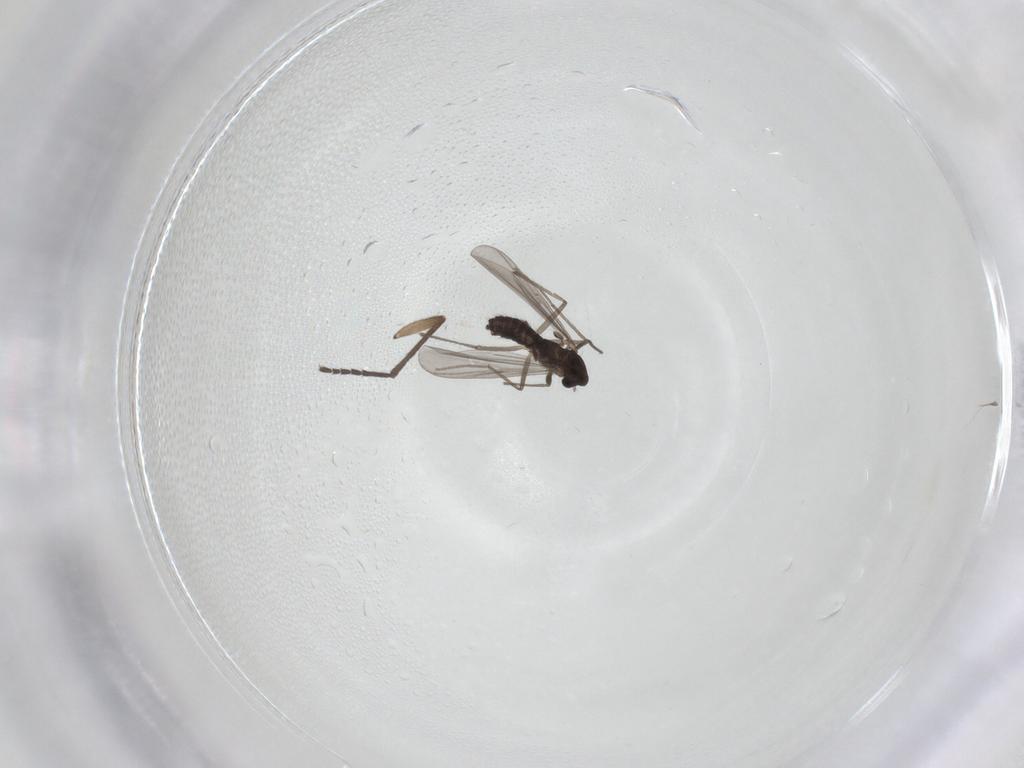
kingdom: Animalia
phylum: Arthropoda
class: Insecta
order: Diptera
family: Chironomidae
